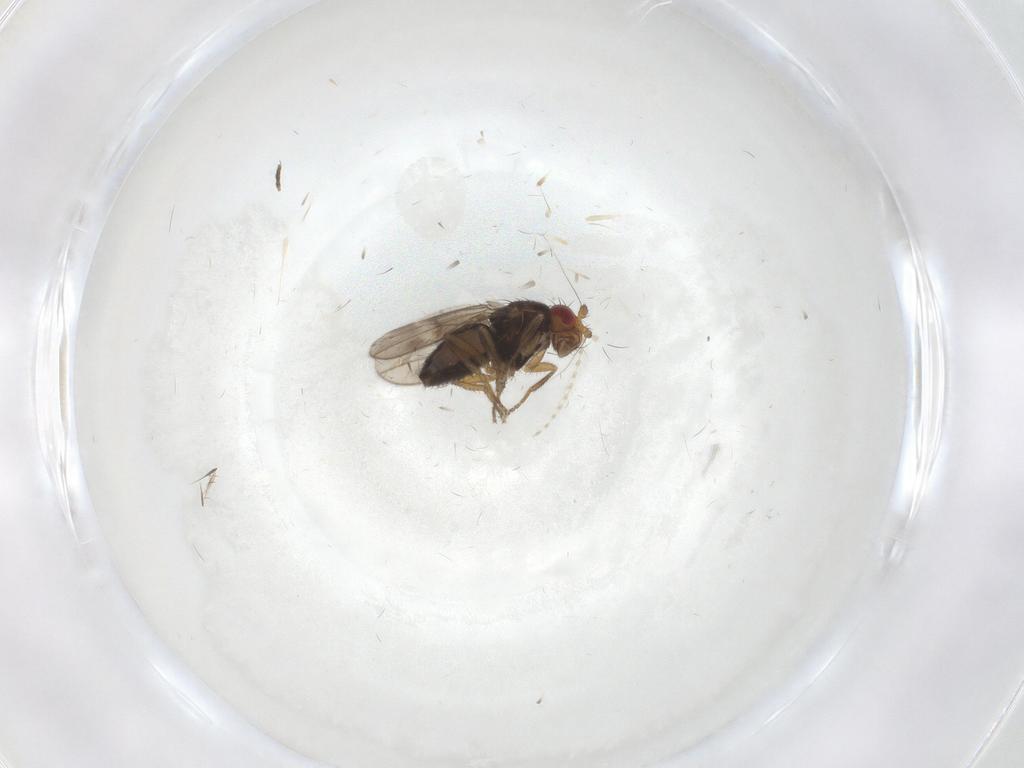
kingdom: Animalia
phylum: Arthropoda
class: Insecta
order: Diptera
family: Sphaeroceridae
